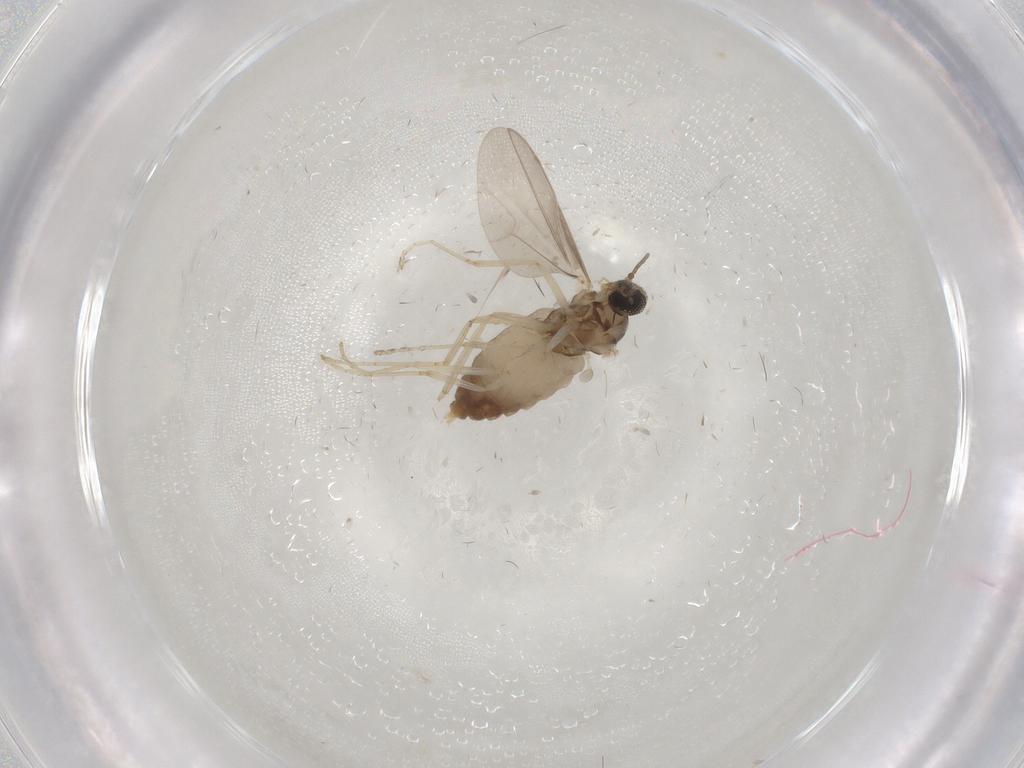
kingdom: Animalia
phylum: Arthropoda
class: Insecta
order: Diptera
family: Cecidomyiidae
